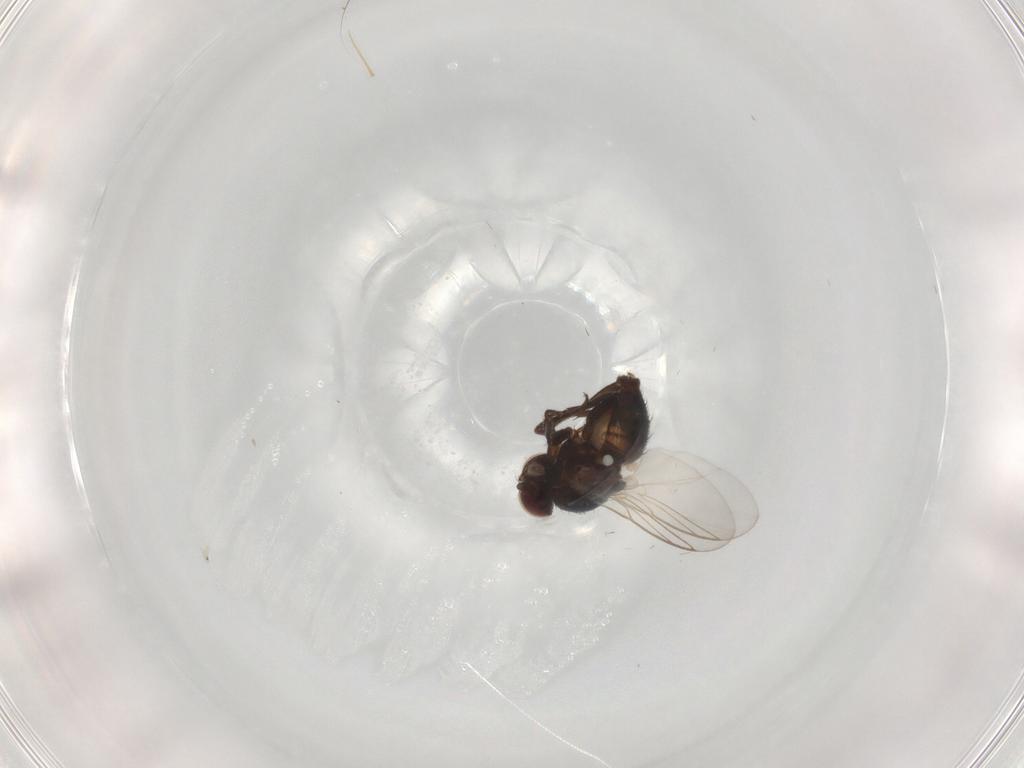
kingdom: Animalia
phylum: Arthropoda
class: Insecta
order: Diptera
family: Agromyzidae
